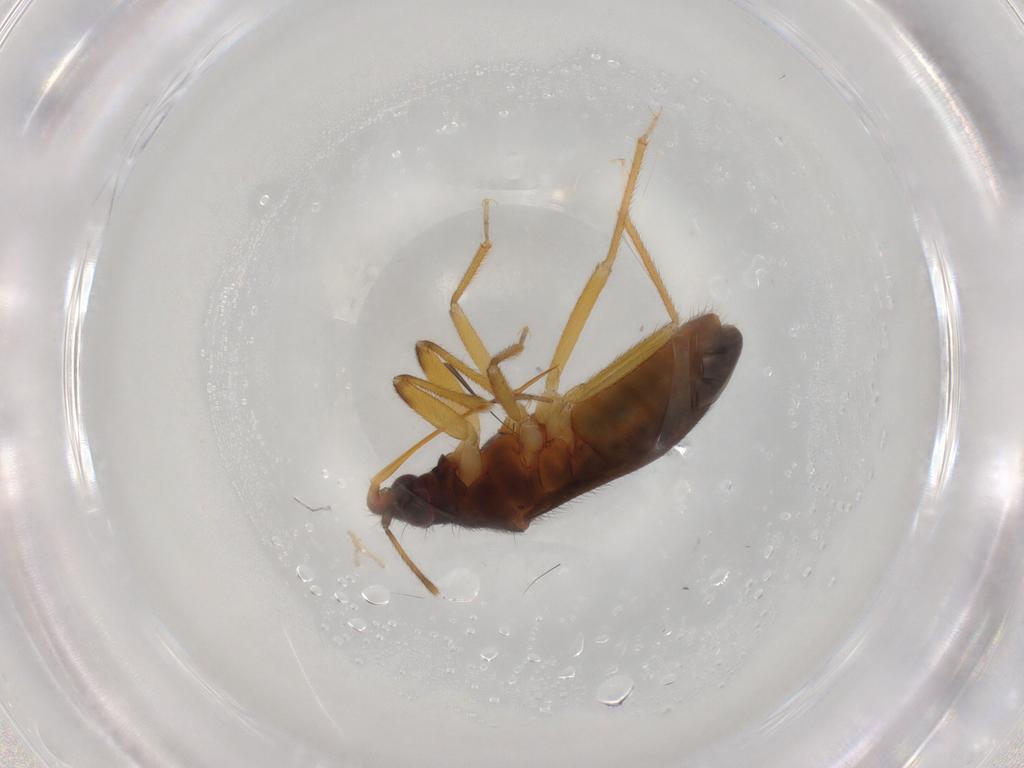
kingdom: Animalia
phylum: Arthropoda
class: Insecta
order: Hemiptera
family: Anthocoridae
